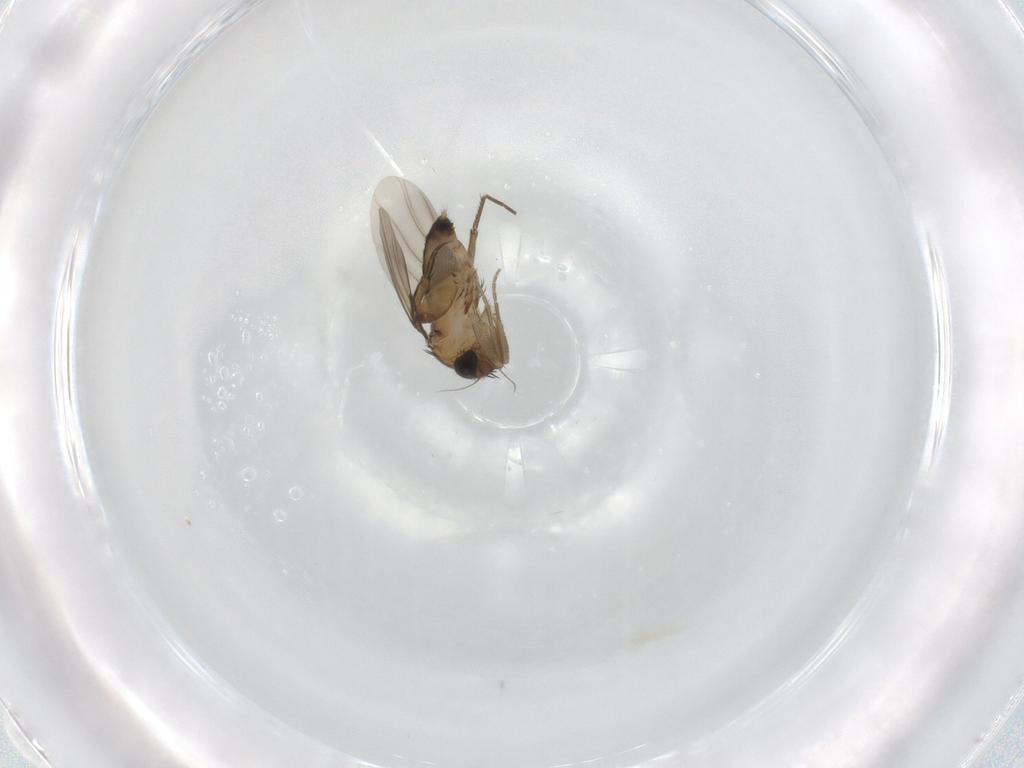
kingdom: Animalia
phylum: Arthropoda
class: Insecta
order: Diptera
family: Phoridae
